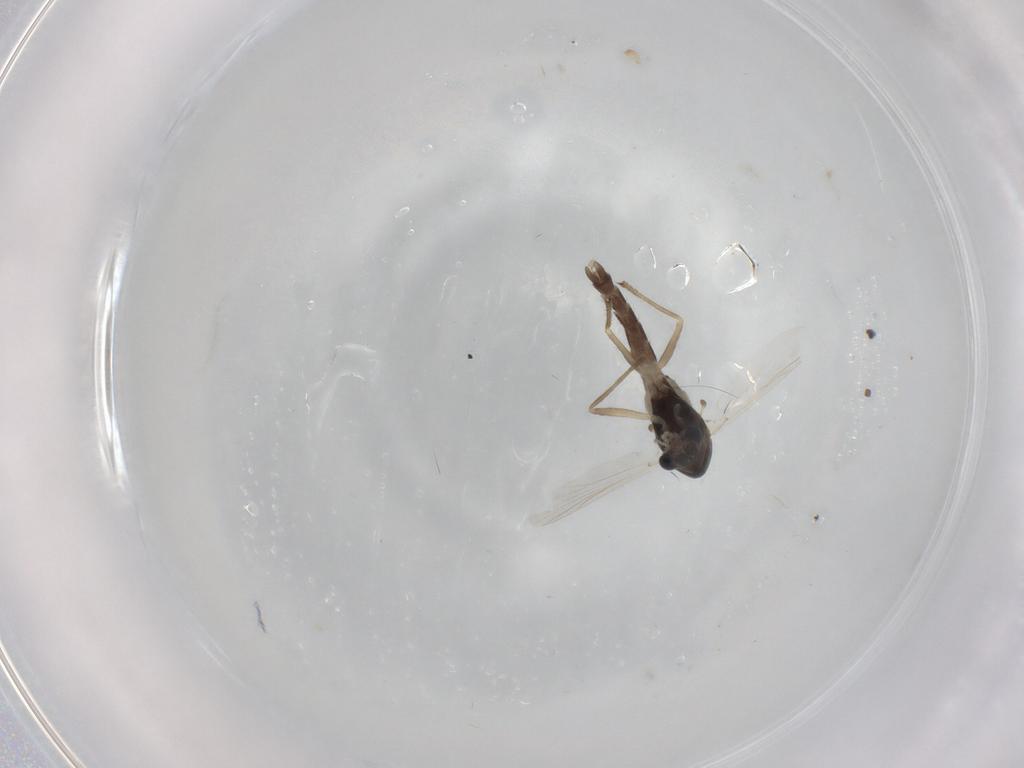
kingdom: Animalia
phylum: Arthropoda
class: Insecta
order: Diptera
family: Chironomidae
